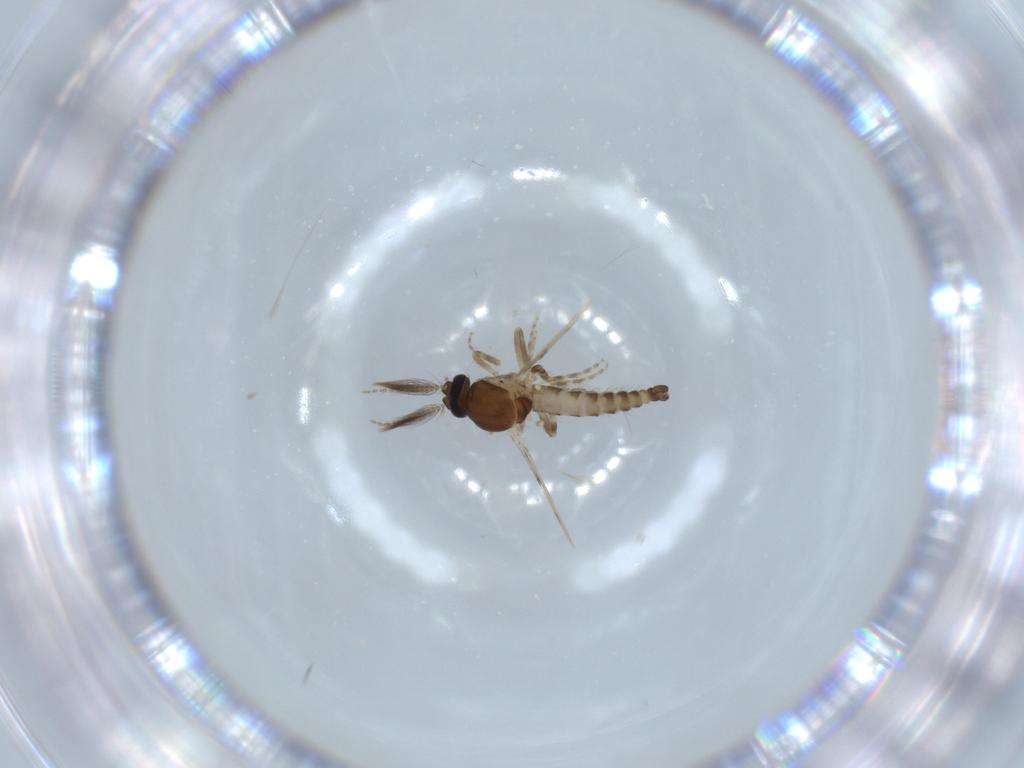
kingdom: Animalia
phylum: Arthropoda
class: Insecta
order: Diptera
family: Ceratopogonidae
